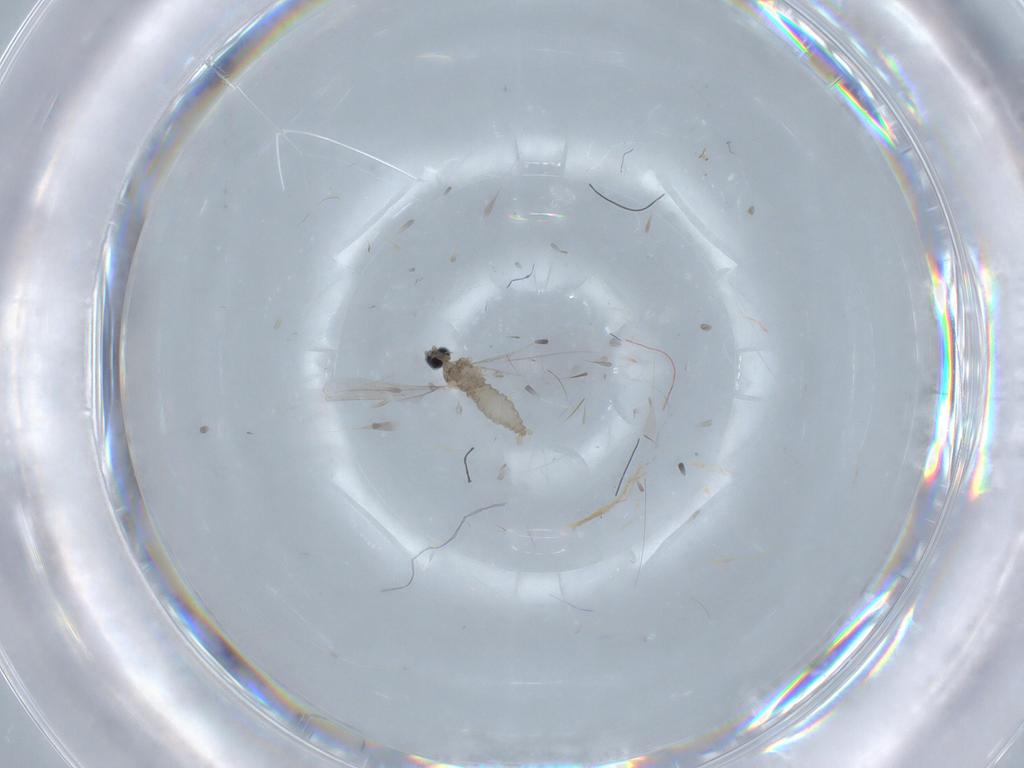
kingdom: Animalia
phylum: Arthropoda
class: Insecta
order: Diptera
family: Cecidomyiidae
